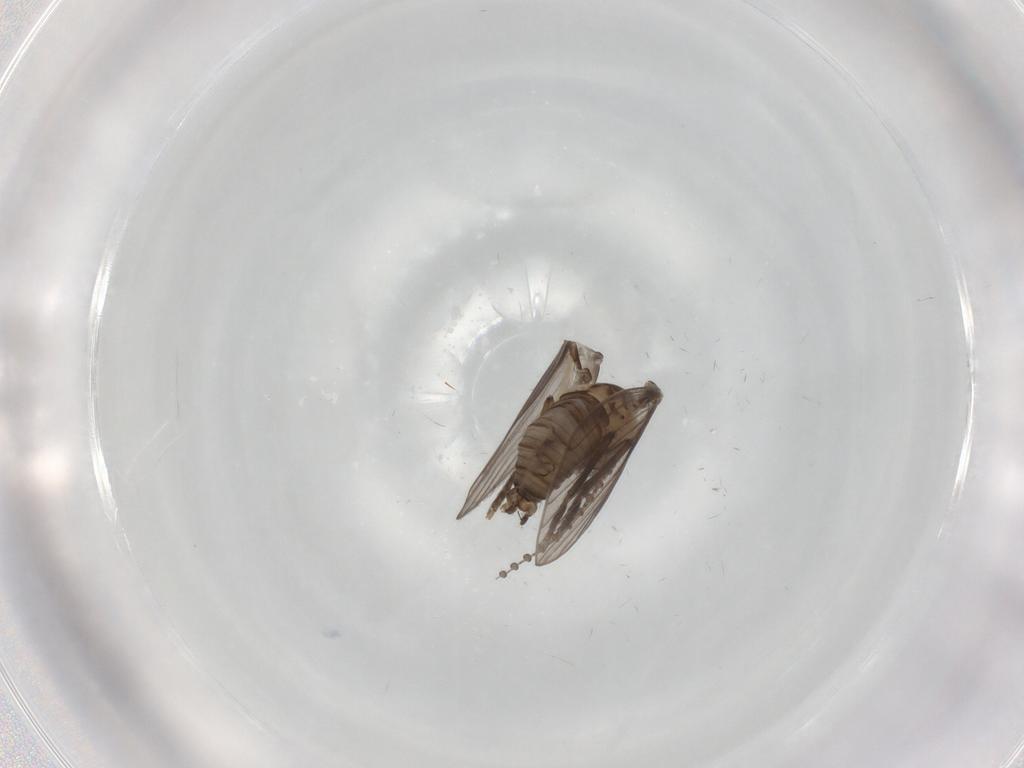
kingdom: Animalia
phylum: Arthropoda
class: Insecta
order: Diptera
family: Psychodidae
